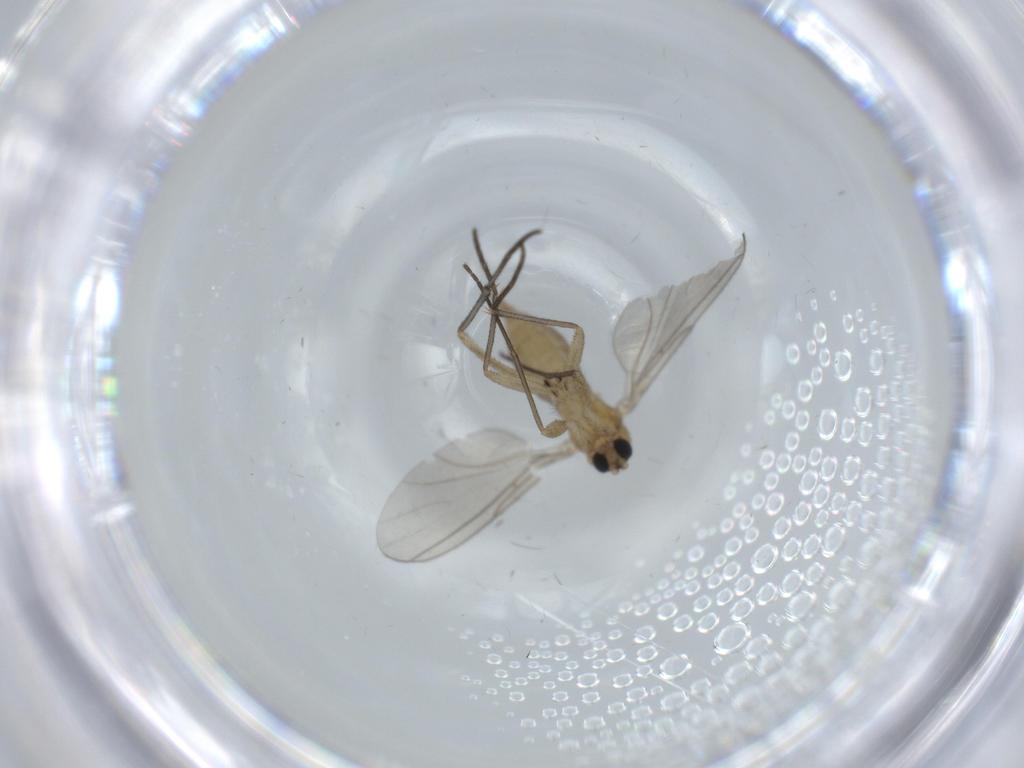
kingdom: Animalia
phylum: Arthropoda
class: Insecta
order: Diptera
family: Sciaridae
